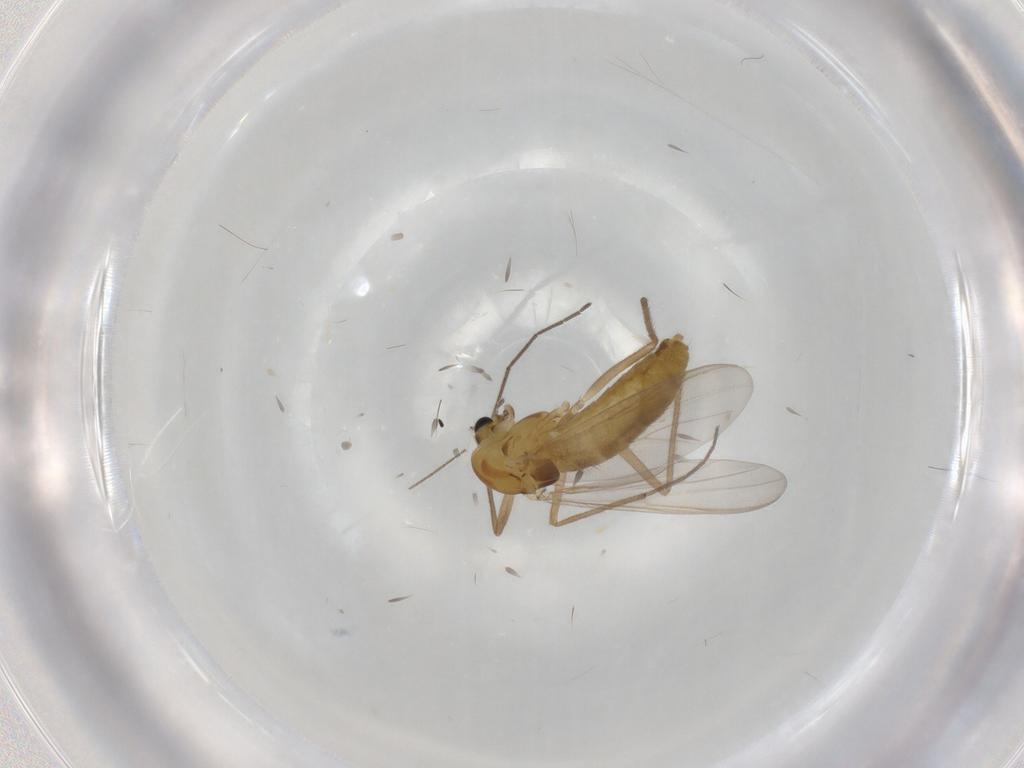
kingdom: Animalia
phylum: Arthropoda
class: Insecta
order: Diptera
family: Chironomidae
